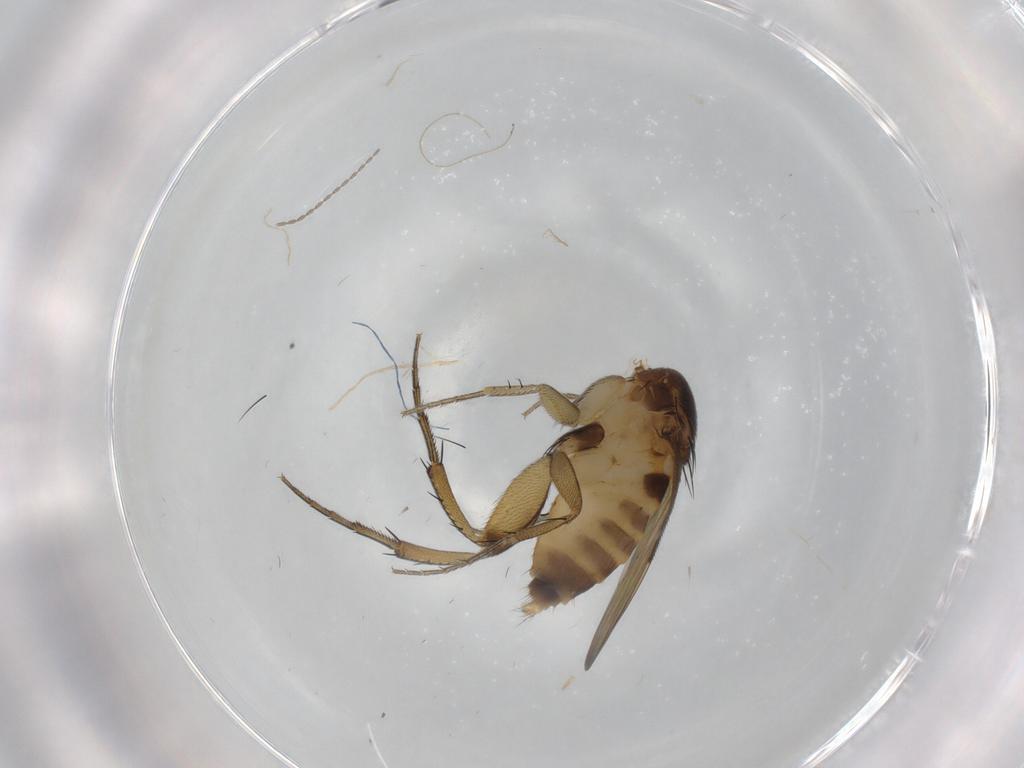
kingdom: Animalia
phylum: Arthropoda
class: Insecta
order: Diptera
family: Phoridae
